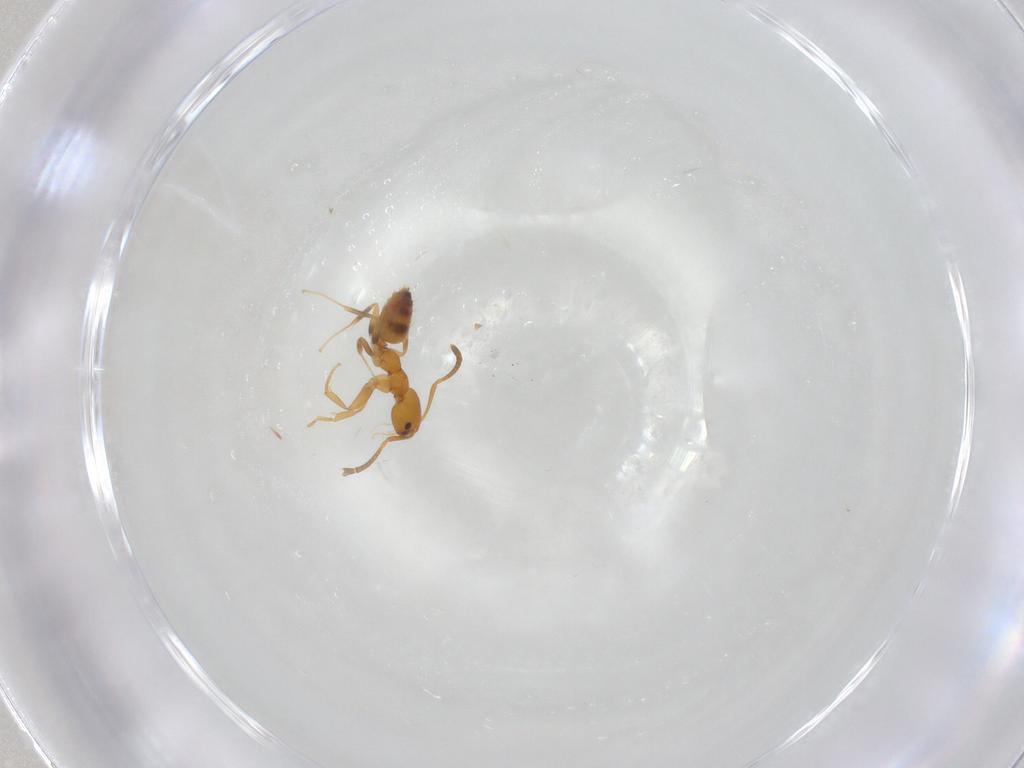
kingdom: Animalia
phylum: Arthropoda
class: Insecta
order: Hymenoptera
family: Formicidae
